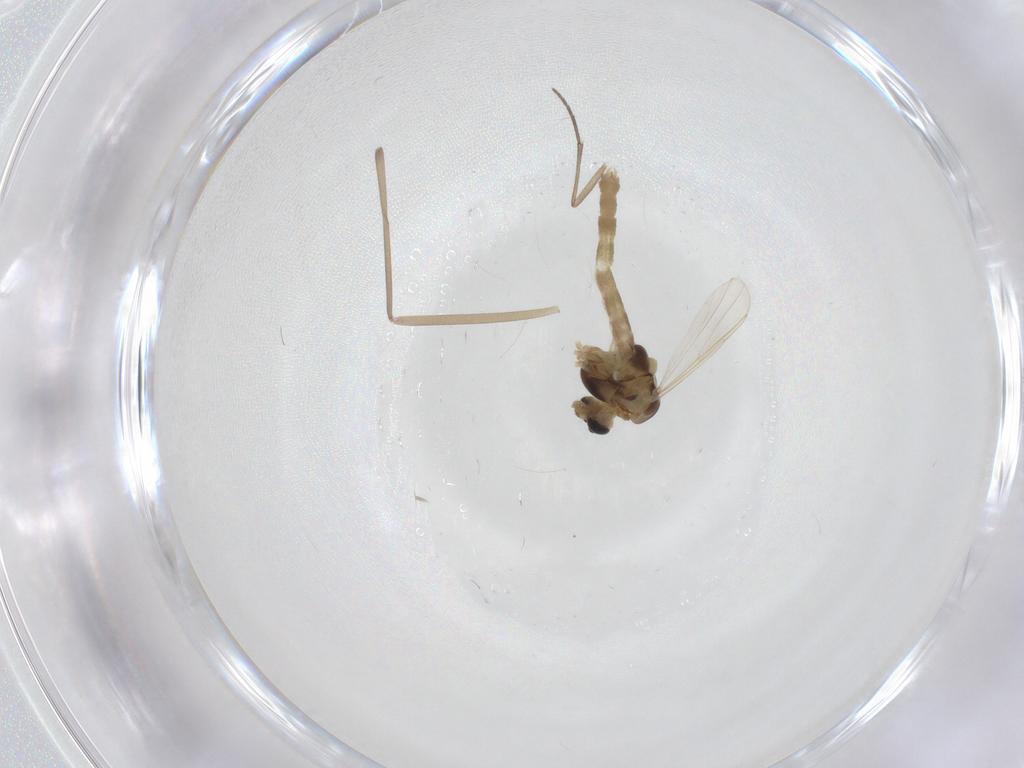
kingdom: Animalia
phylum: Arthropoda
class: Insecta
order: Diptera
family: Chironomidae
